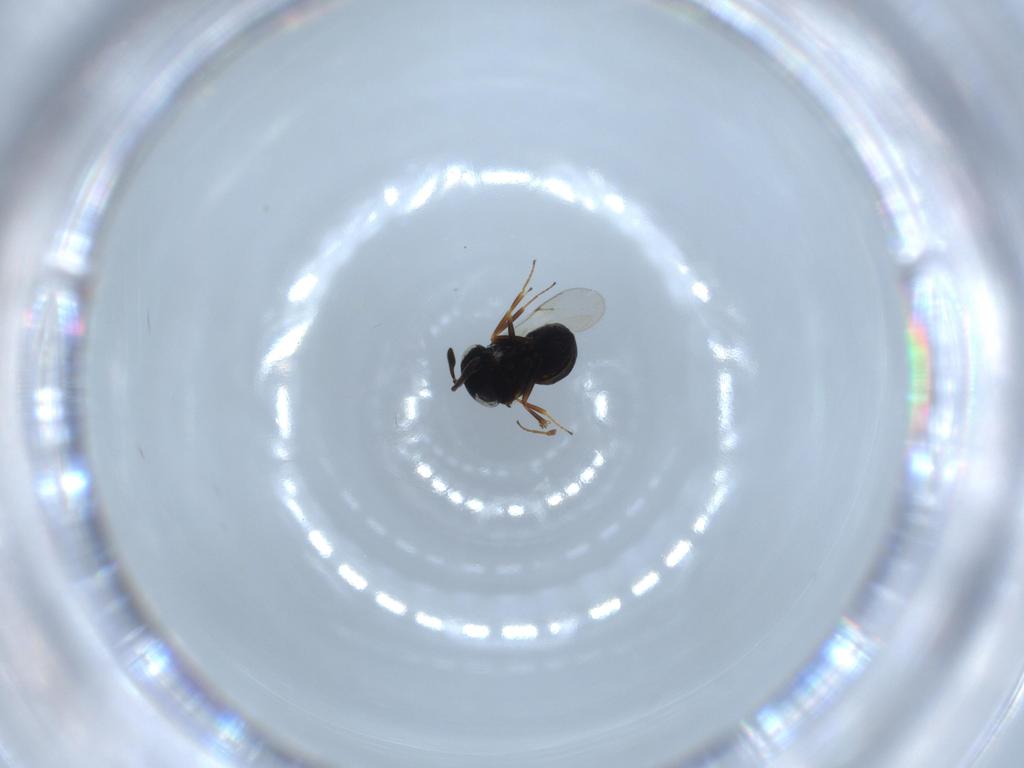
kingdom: Animalia
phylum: Arthropoda
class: Insecta
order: Hymenoptera
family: Scelionidae
